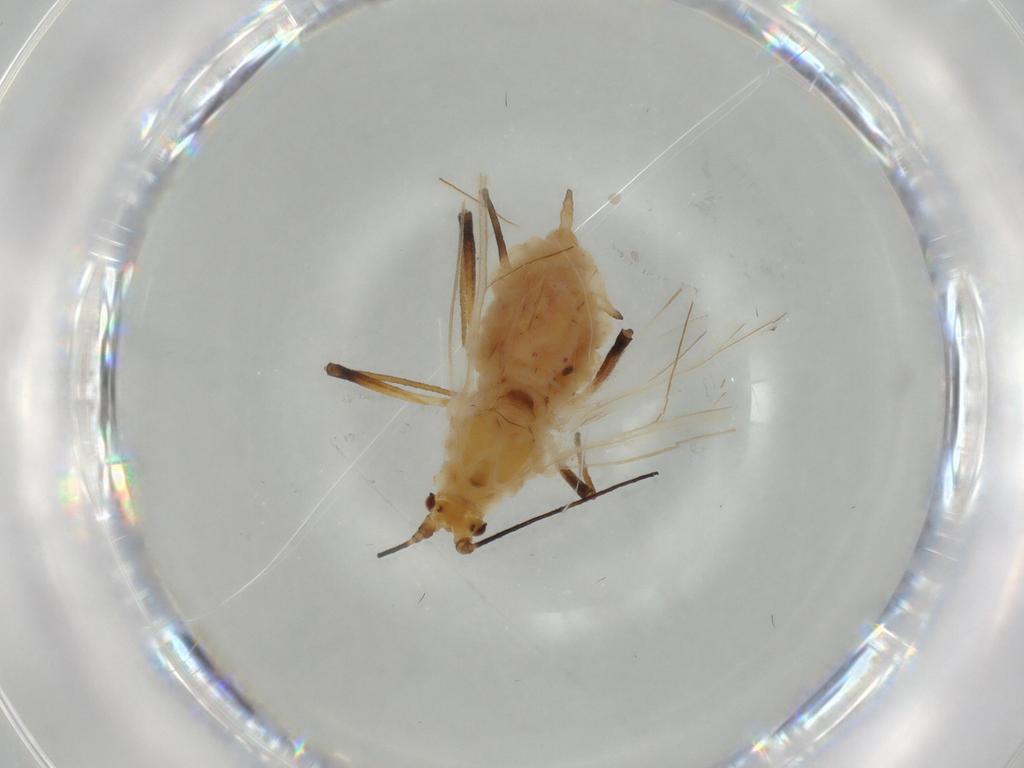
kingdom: Animalia
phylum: Arthropoda
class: Insecta
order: Hemiptera
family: Aphididae
